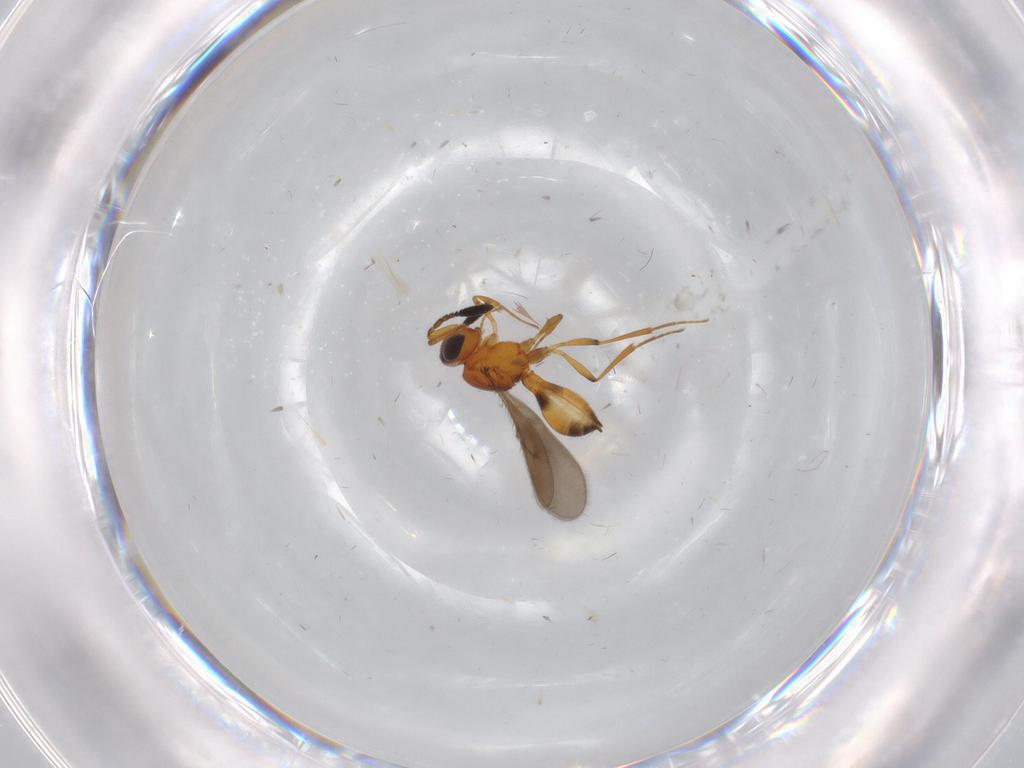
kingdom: Animalia
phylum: Arthropoda
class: Insecta
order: Hymenoptera
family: Scelionidae
